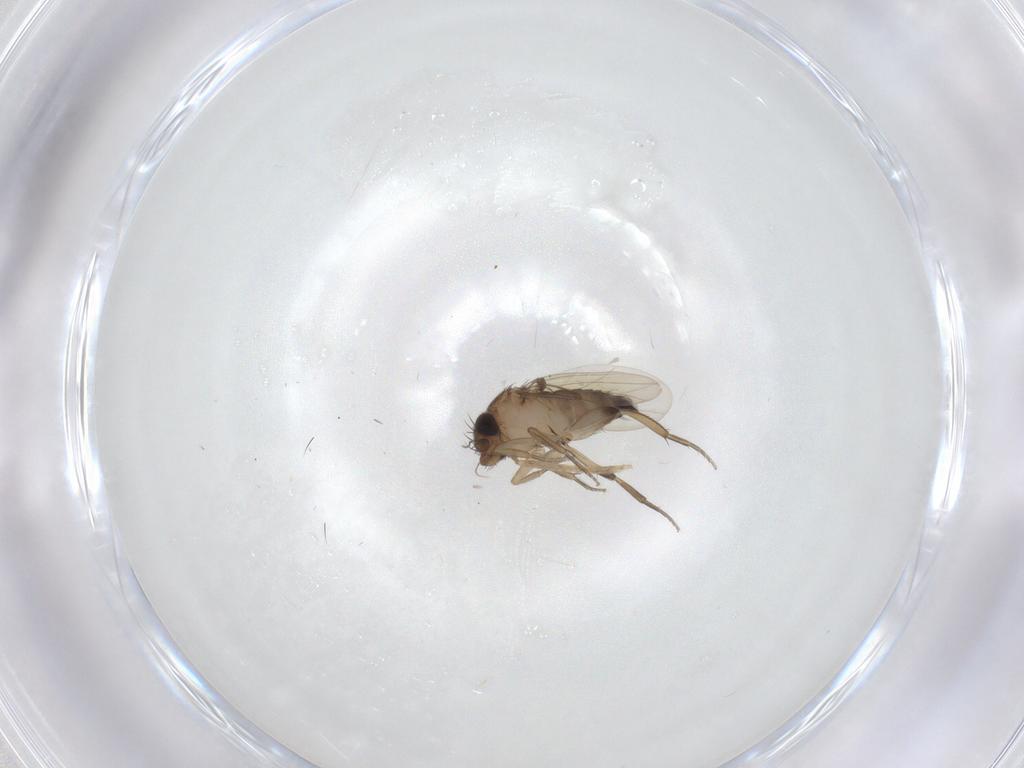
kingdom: Animalia
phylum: Arthropoda
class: Insecta
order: Diptera
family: Phoridae
